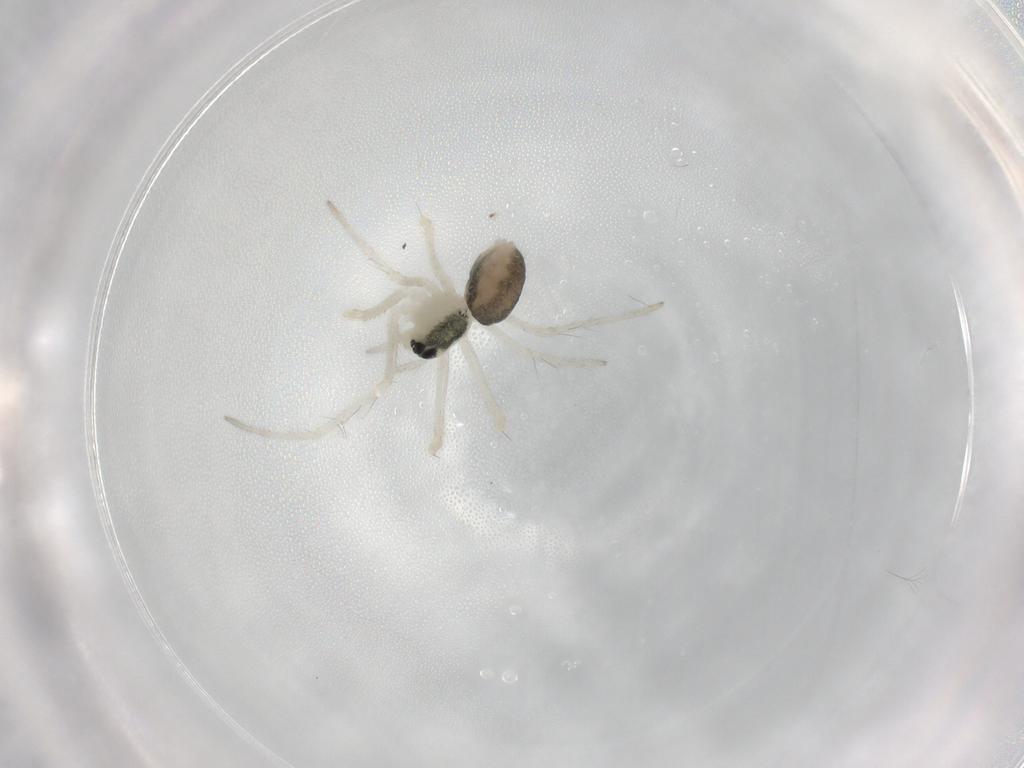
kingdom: Animalia
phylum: Arthropoda
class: Arachnida
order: Araneae
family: Linyphiidae
